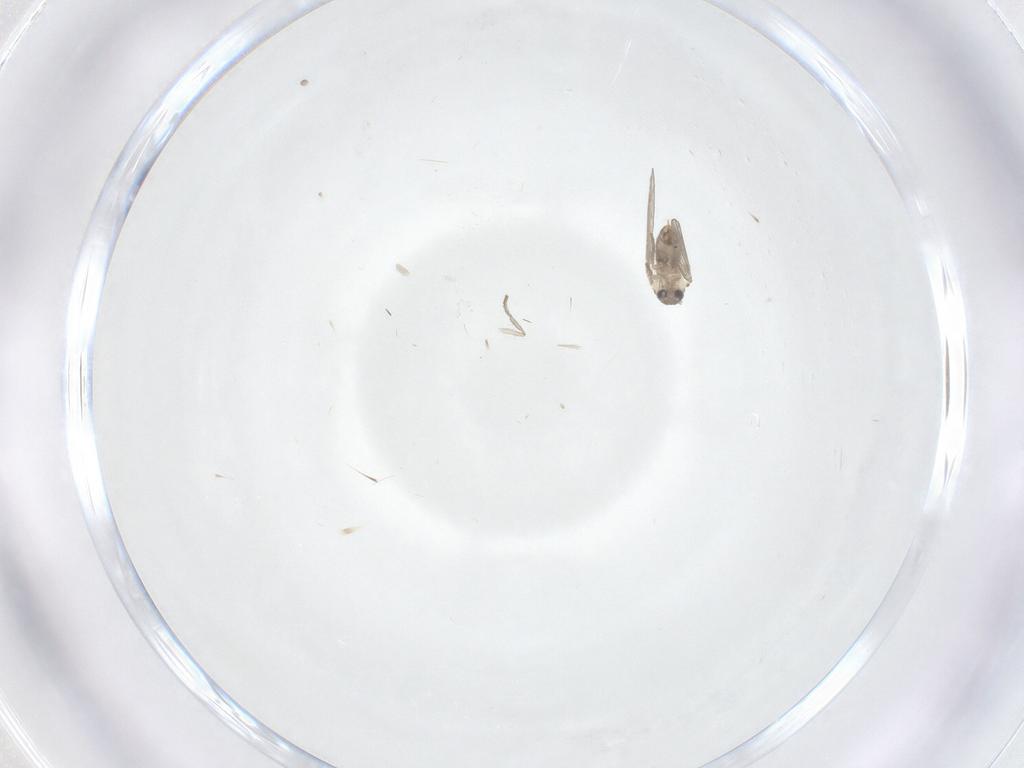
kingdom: Animalia
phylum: Arthropoda
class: Insecta
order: Diptera
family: Psychodidae
